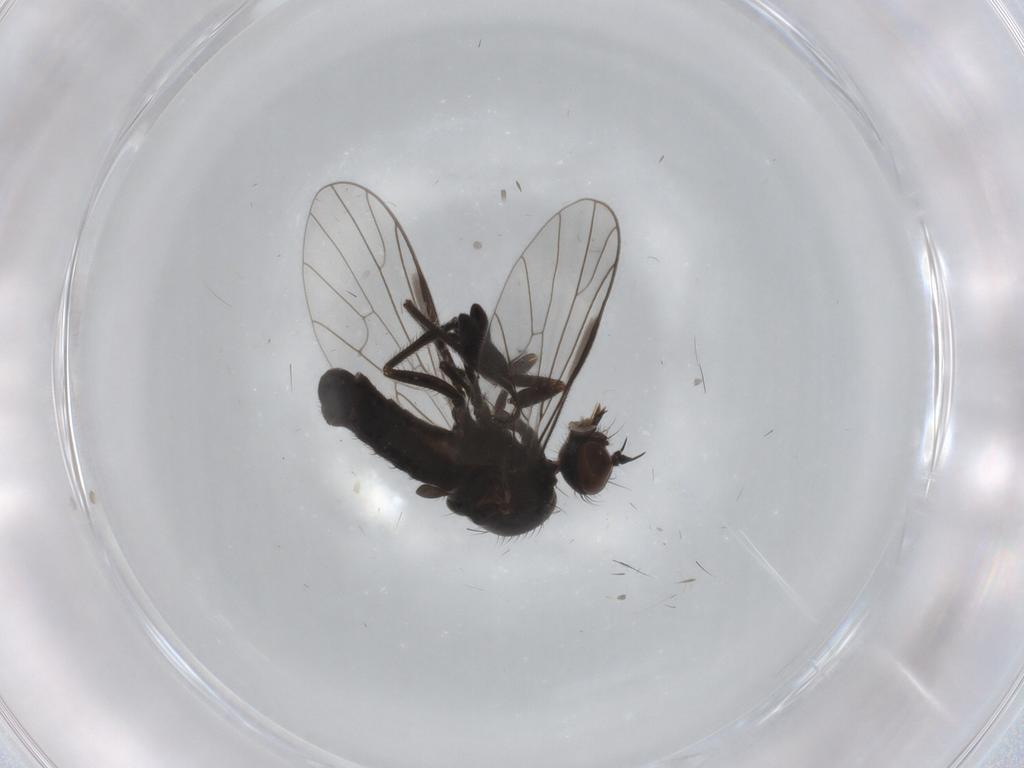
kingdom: Animalia
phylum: Arthropoda
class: Insecta
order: Diptera
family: Empididae
